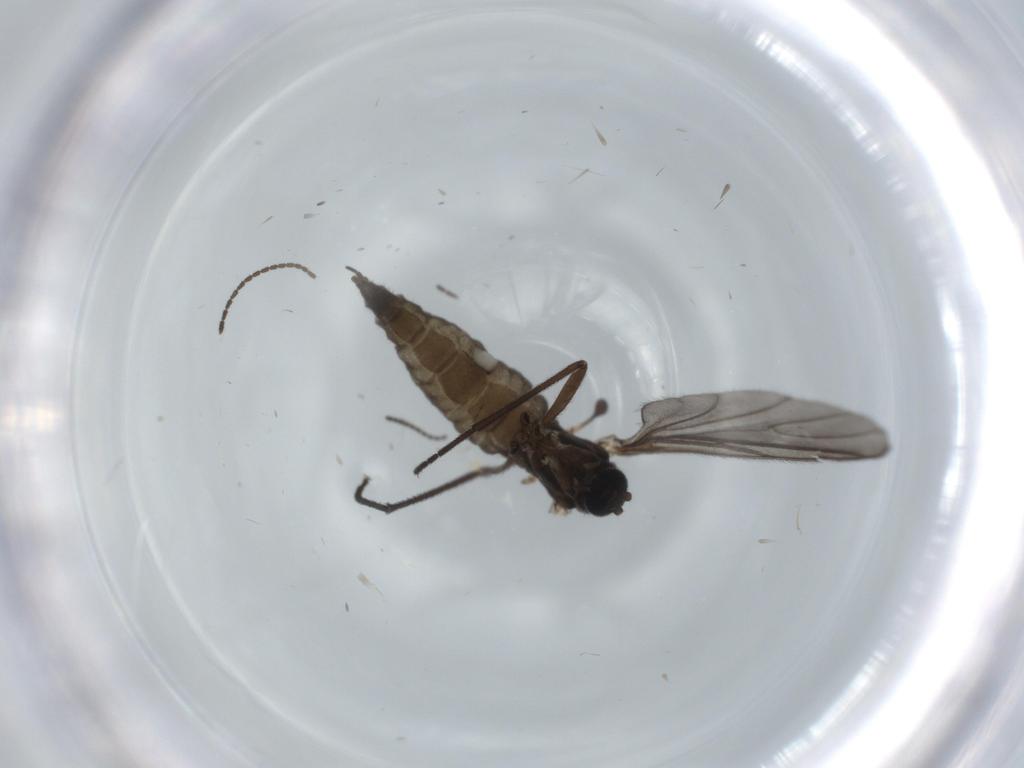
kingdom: Animalia
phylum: Arthropoda
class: Insecta
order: Diptera
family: Sciaridae
